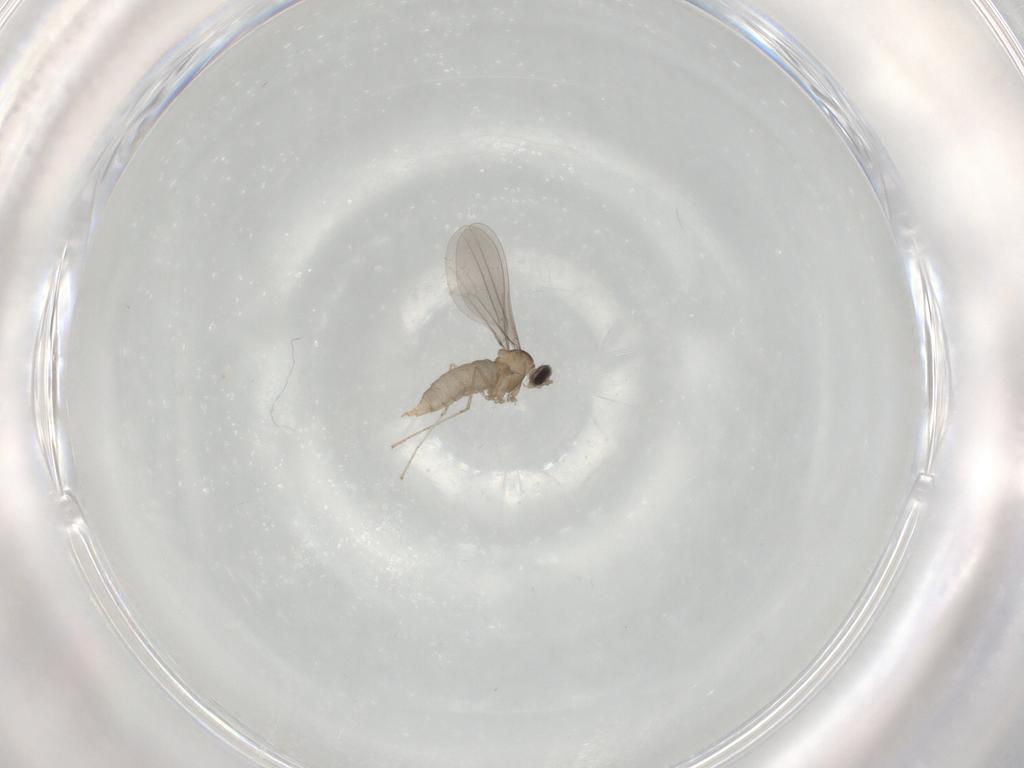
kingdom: Animalia
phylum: Arthropoda
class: Insecta
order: Diptera
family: Cecidomyiidae
